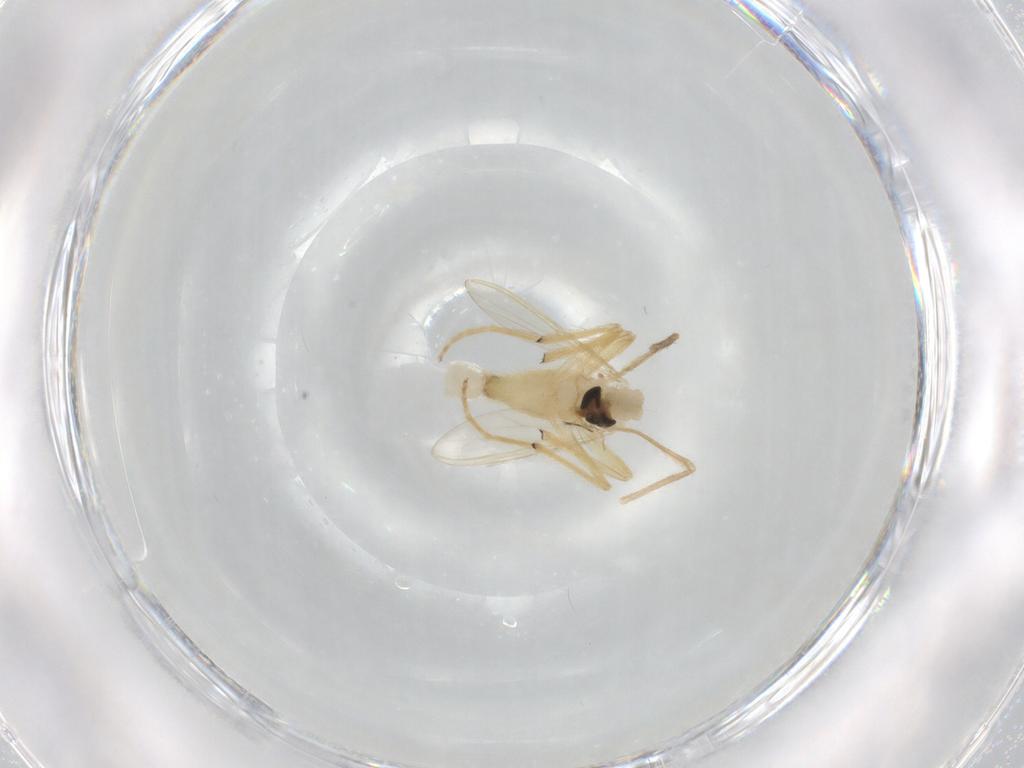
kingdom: Animalia
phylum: Arthropoda
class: Insecta
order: Diptera
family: Chironomidae
